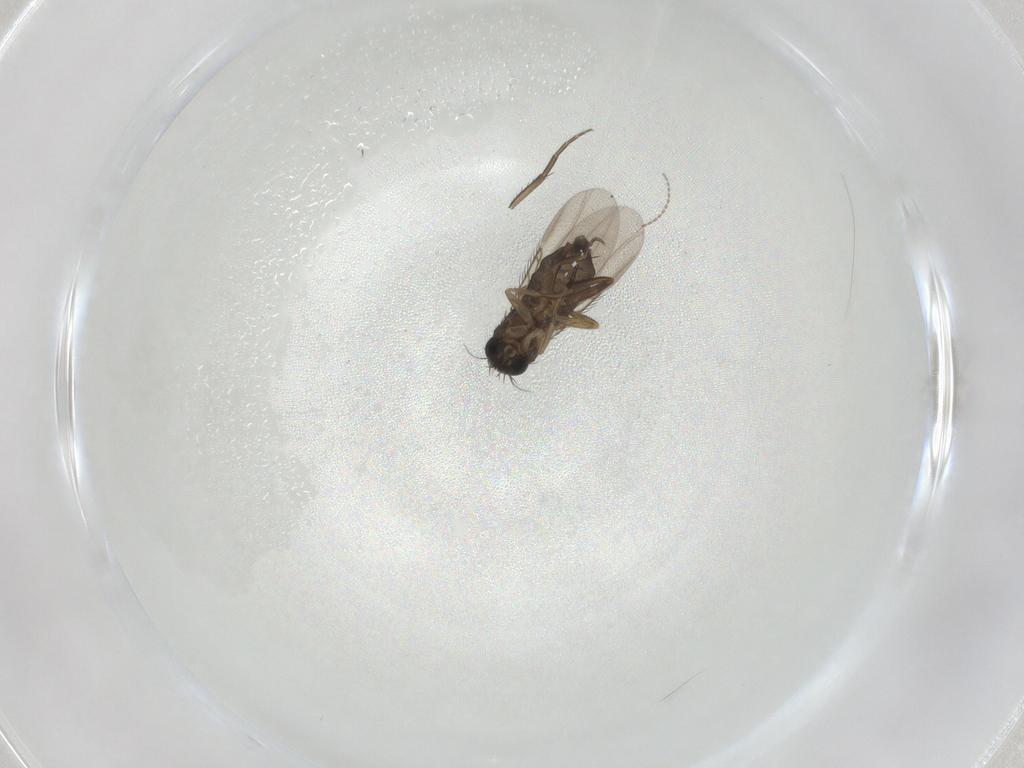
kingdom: Animalia
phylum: Arthropoda
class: Insecta
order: Diptera
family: Phoridae
